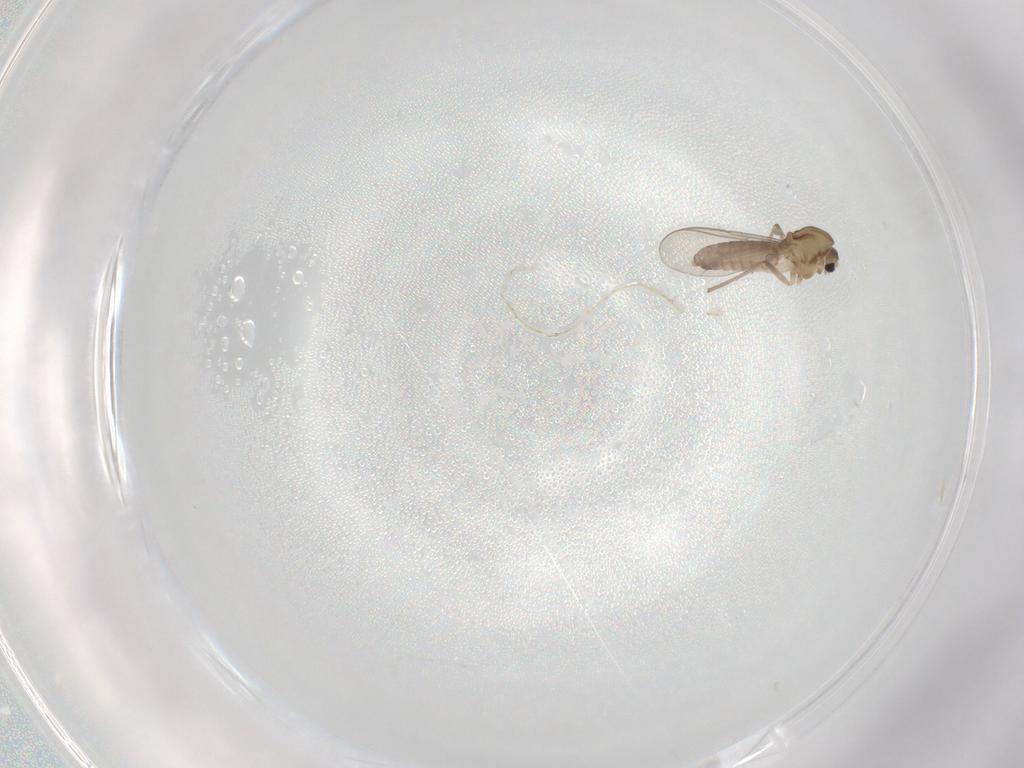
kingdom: Animalia
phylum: Arthropoda
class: Insecta
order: Diptera
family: Chironomidae
